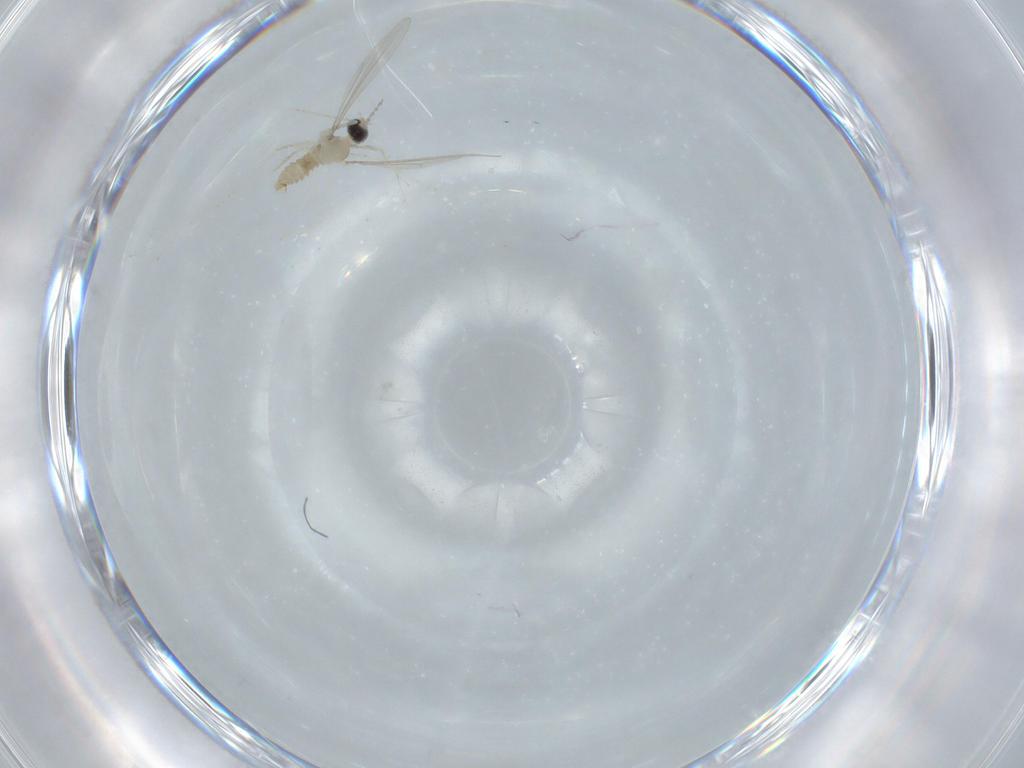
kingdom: Animalia
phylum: Arthropoda
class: Insecta
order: Diptera
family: Dolichopodidae
